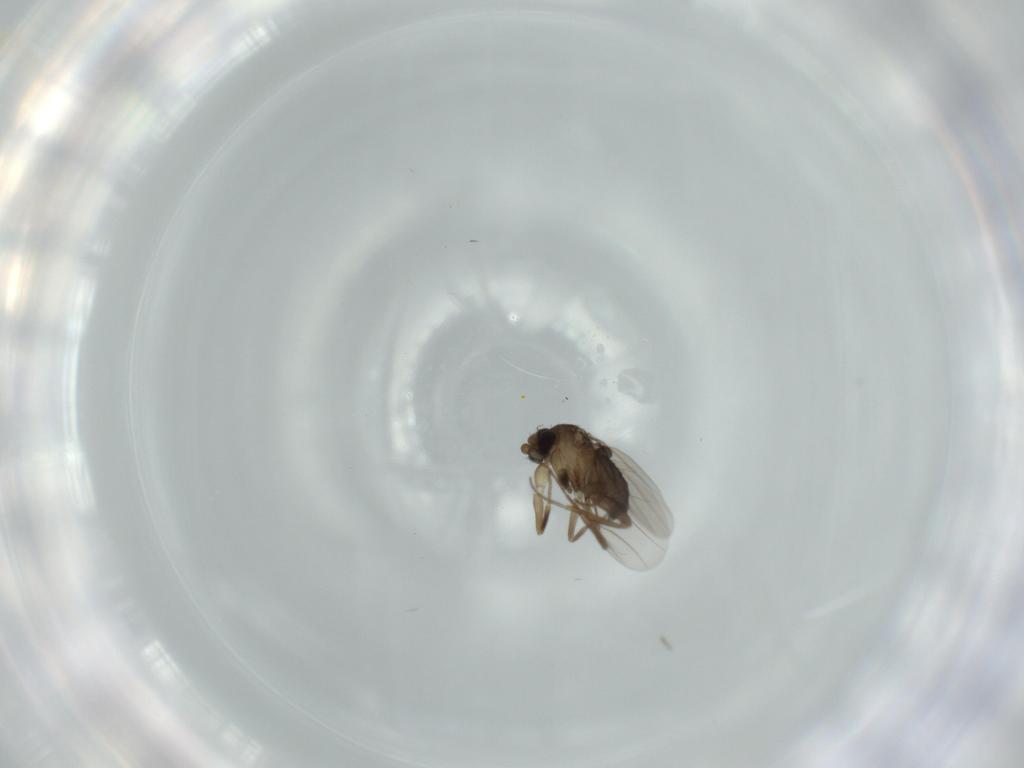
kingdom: Animalia
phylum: Arthropoda
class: Insecta
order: Diptera
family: Phoridae
